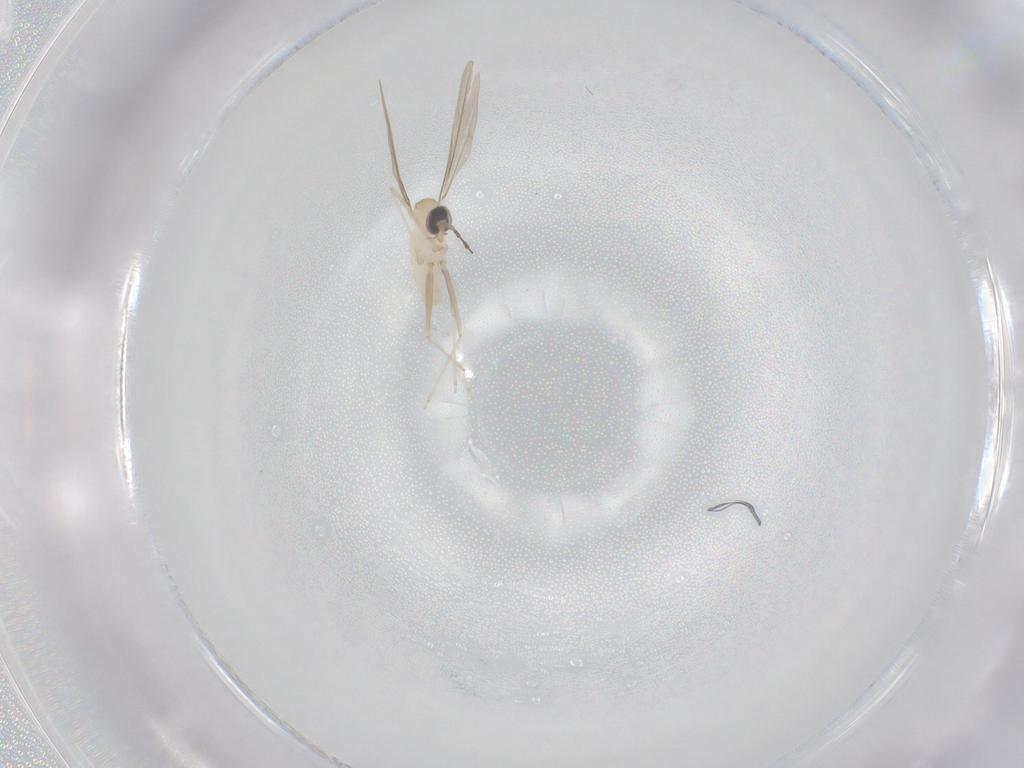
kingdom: Animalia
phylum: Arthropoda
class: Insecta
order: Diptera
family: Cecidomyiidae
